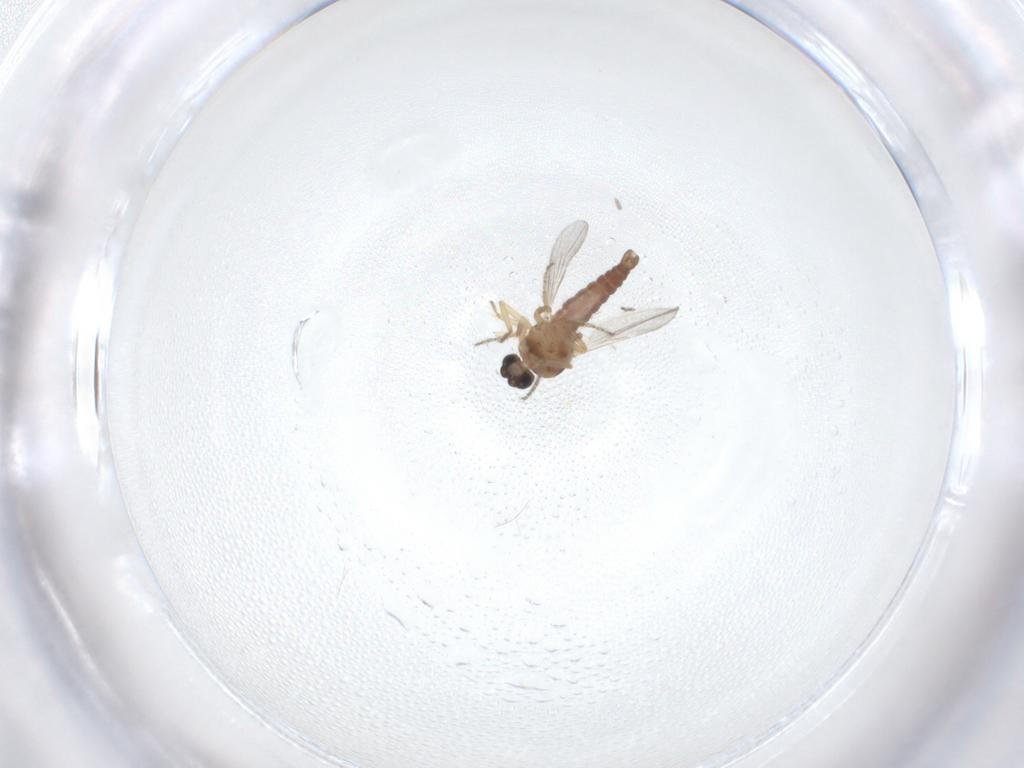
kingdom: Animalia
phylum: Arthropoda
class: Insecta
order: Diptera
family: Ceratopogonidae
